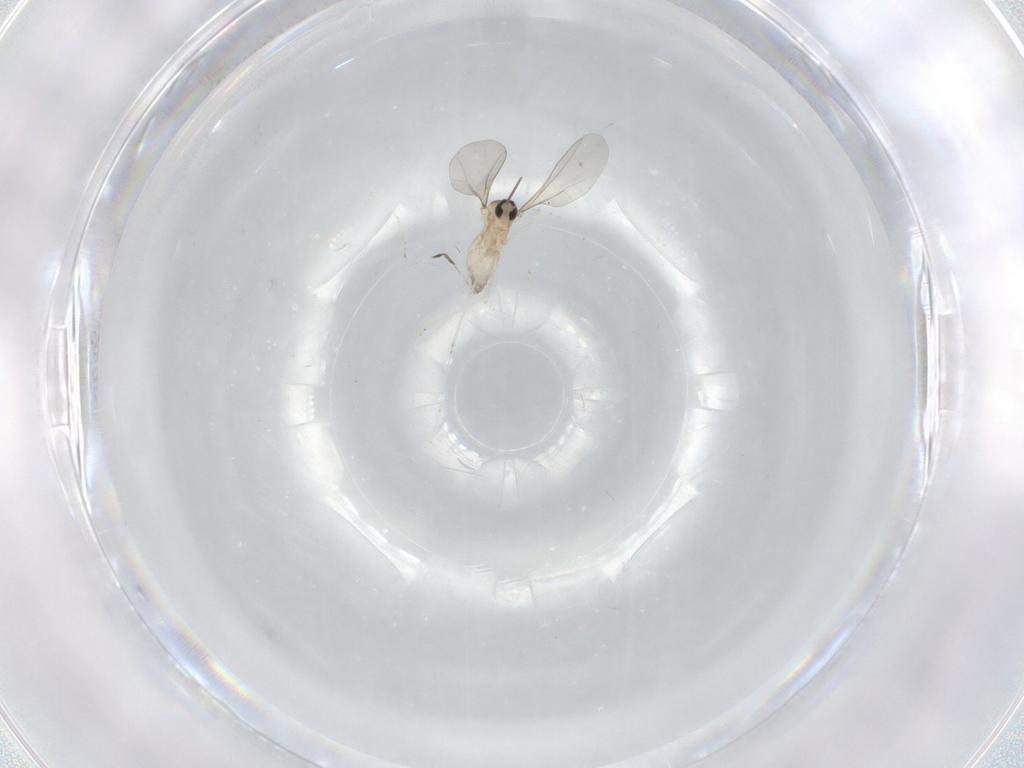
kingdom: Animalia
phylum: Arthropoda
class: Insecta
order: Diptera
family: Cecidomyiidae
